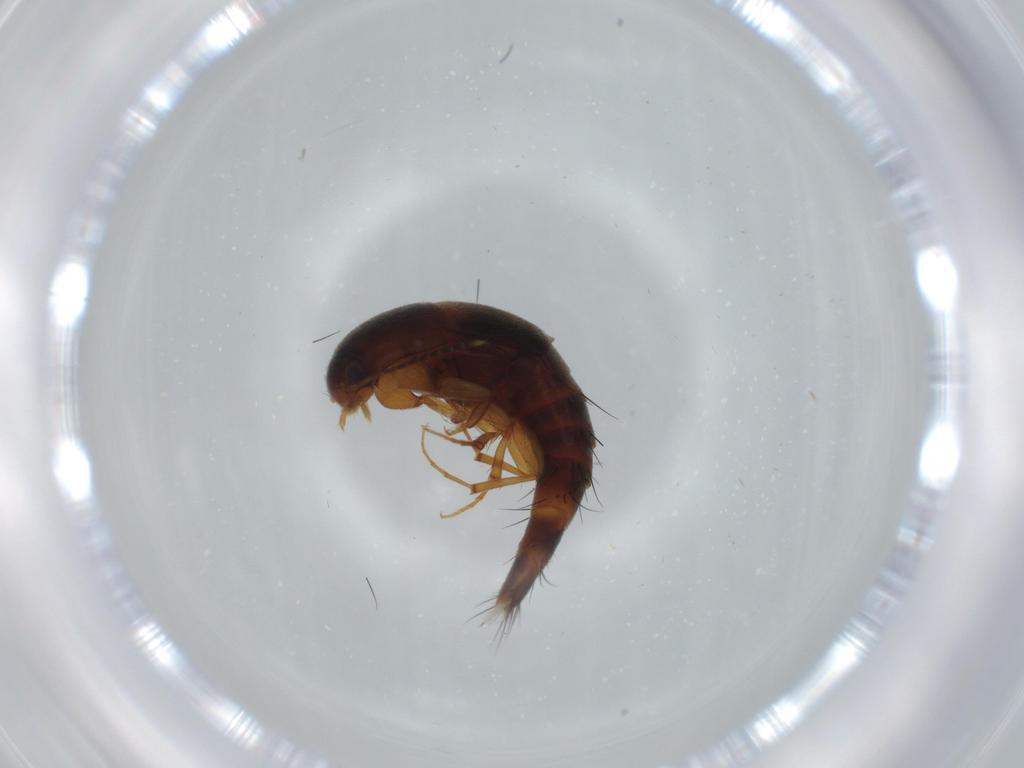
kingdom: Animalia
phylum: Arthropoda
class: Insecta
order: Coleoptera
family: Staphylinidae
